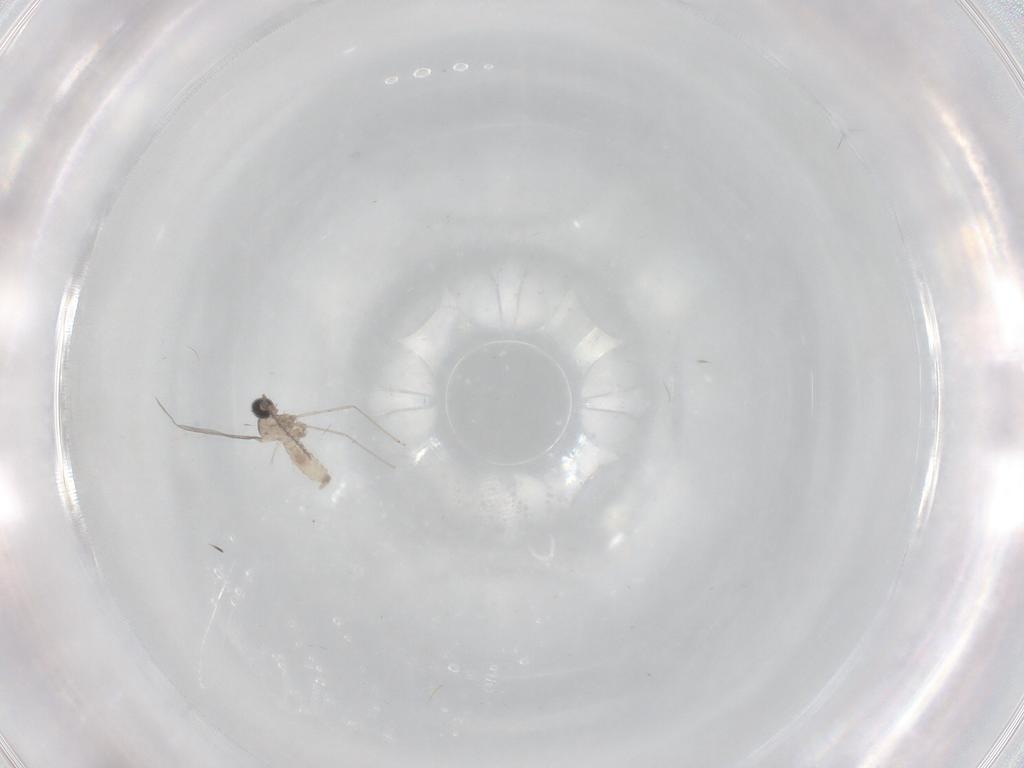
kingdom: Animalia
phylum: Arthropoda
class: Insecta
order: Diptera
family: Cecidomyiidae
